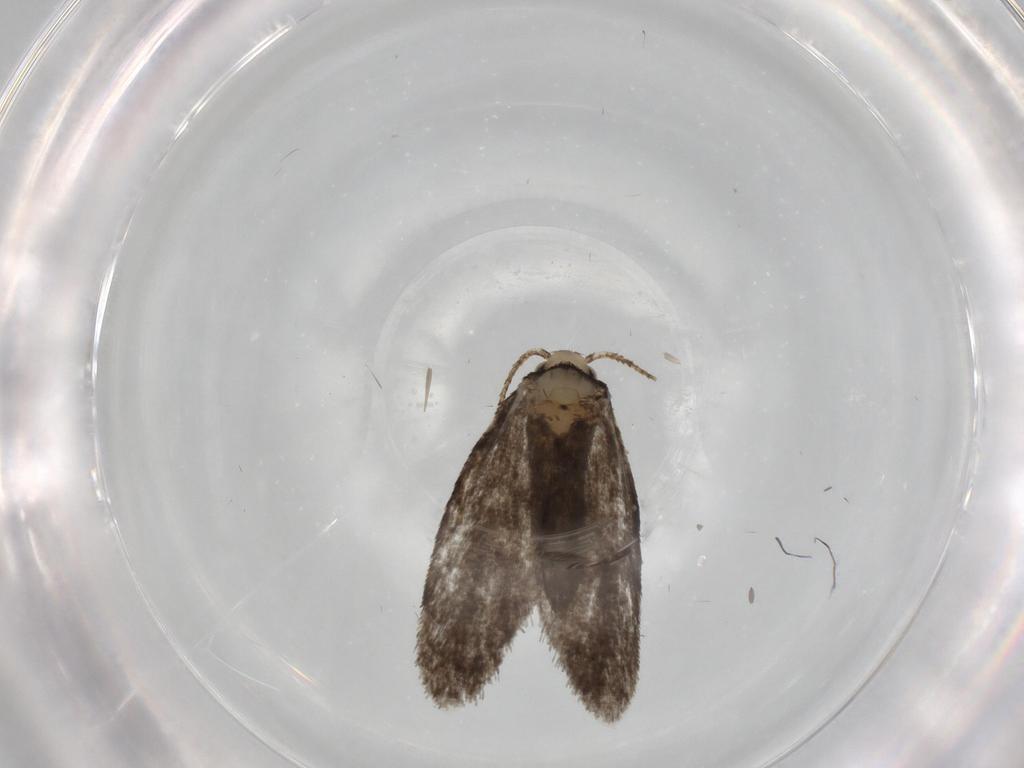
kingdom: Animalia
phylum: Arthropoda
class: Insecta
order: Lepidoptera
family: Psychidae
